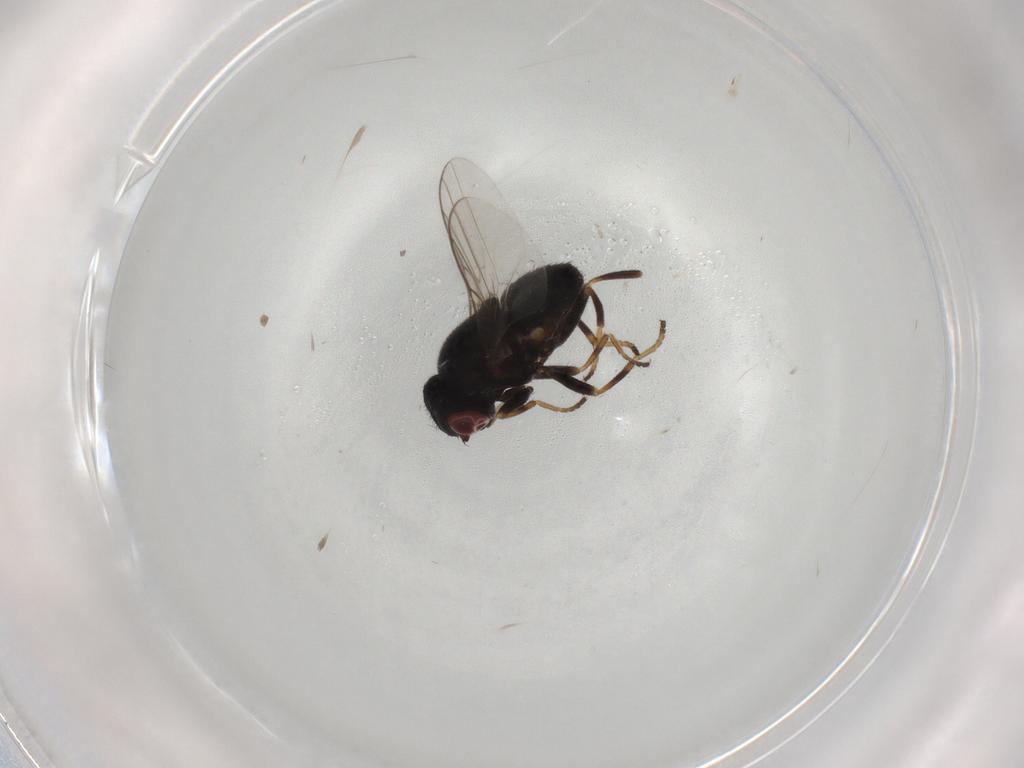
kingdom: Animalia
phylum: Arthropoda
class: Insecta
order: Diptera
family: Chloropidae
